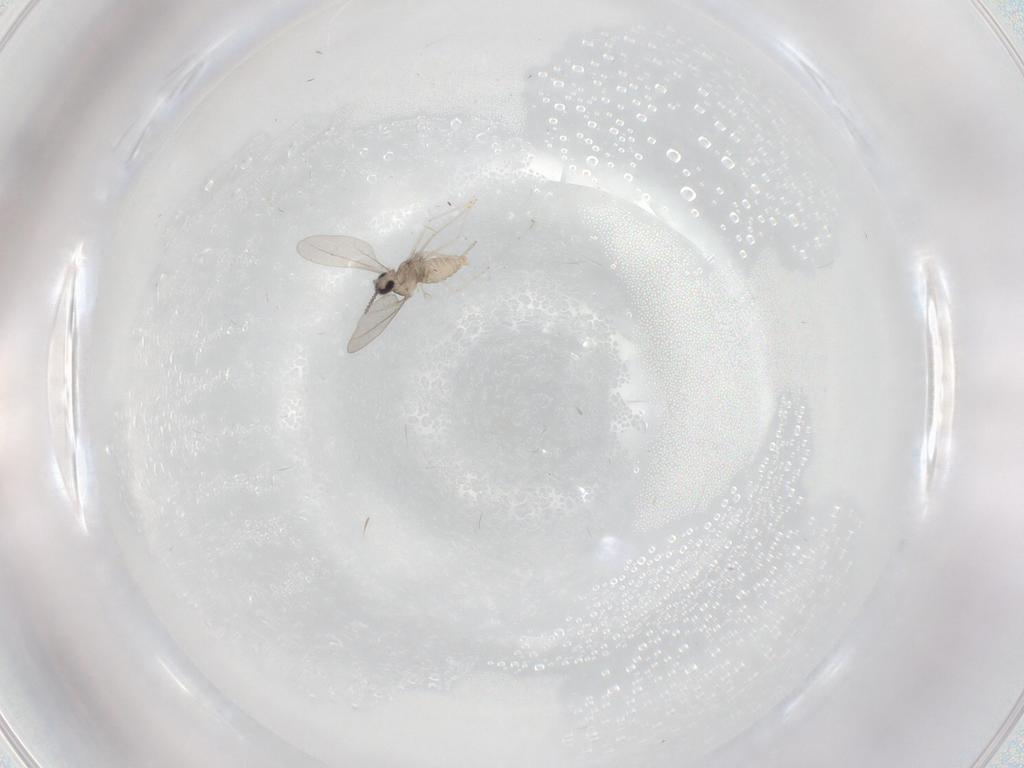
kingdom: Animalia
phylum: Arthropoda
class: Insecta
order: Diptera
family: Cecidomyiidae
